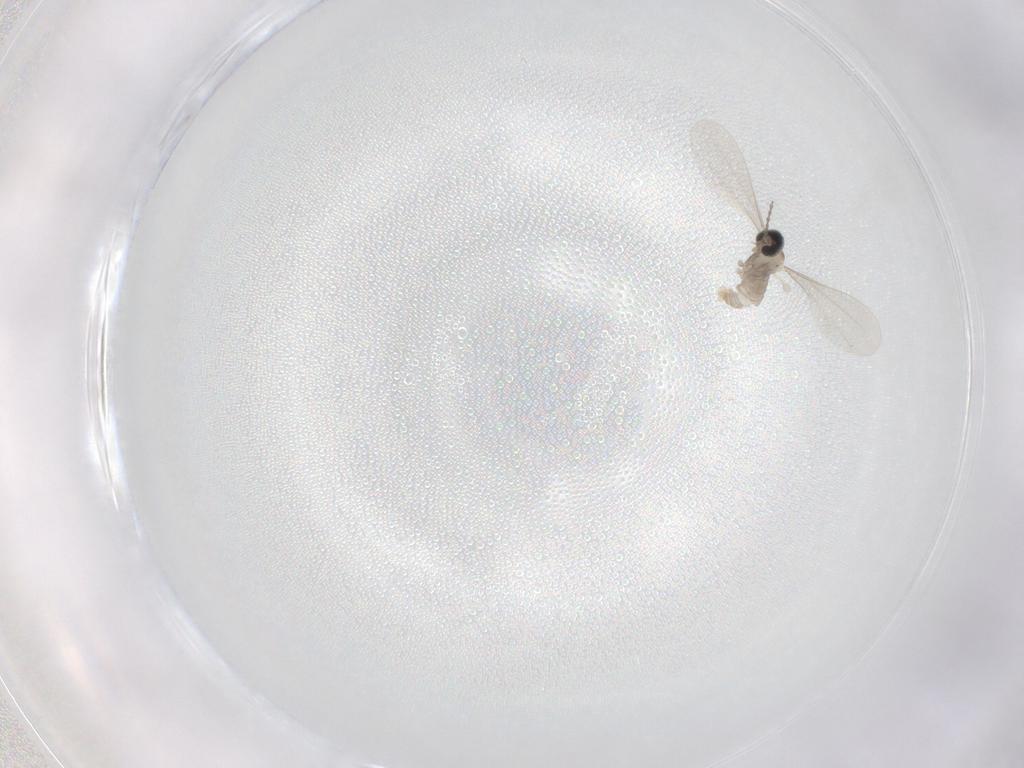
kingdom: Animalia
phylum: Arthropoda
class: Insecta
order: Diptera
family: Cecidomyiidae
